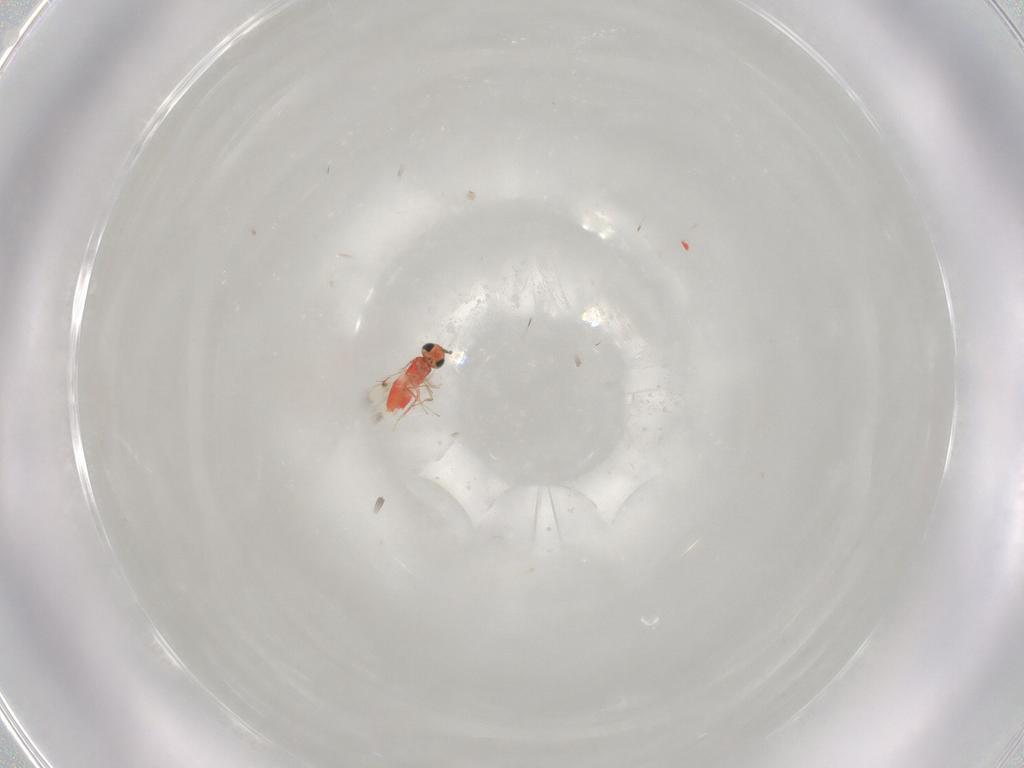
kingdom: Animalia
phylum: Arthropoda
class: Insecta
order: Hymenoptera
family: Trichogrammatidae
